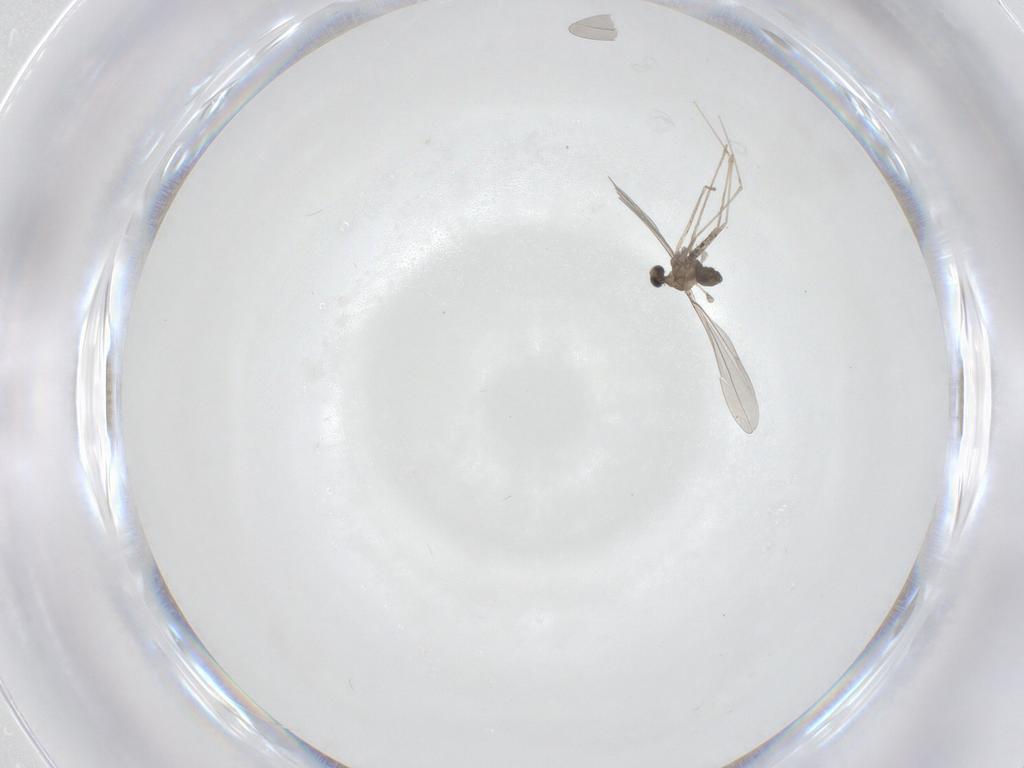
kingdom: Animalia
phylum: Arthropoda
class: Insecta
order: Diptera
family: Cecidomyiidae
